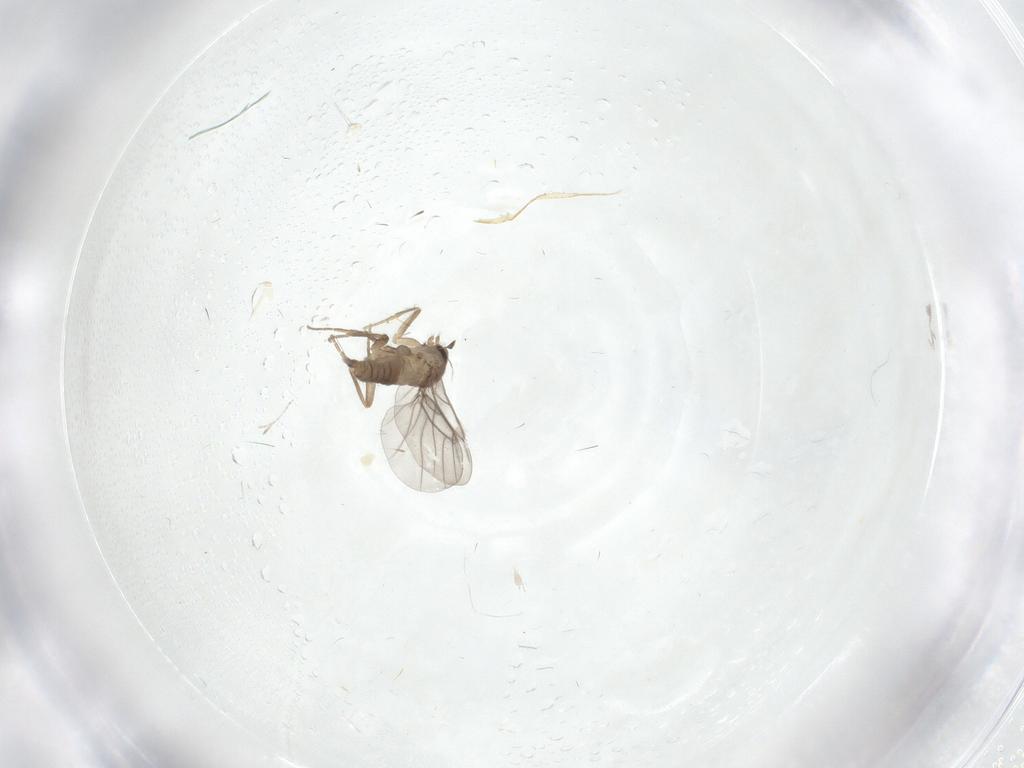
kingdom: Animalia
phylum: Arthropoda
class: Insecta
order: Diptera
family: Chironomidae
